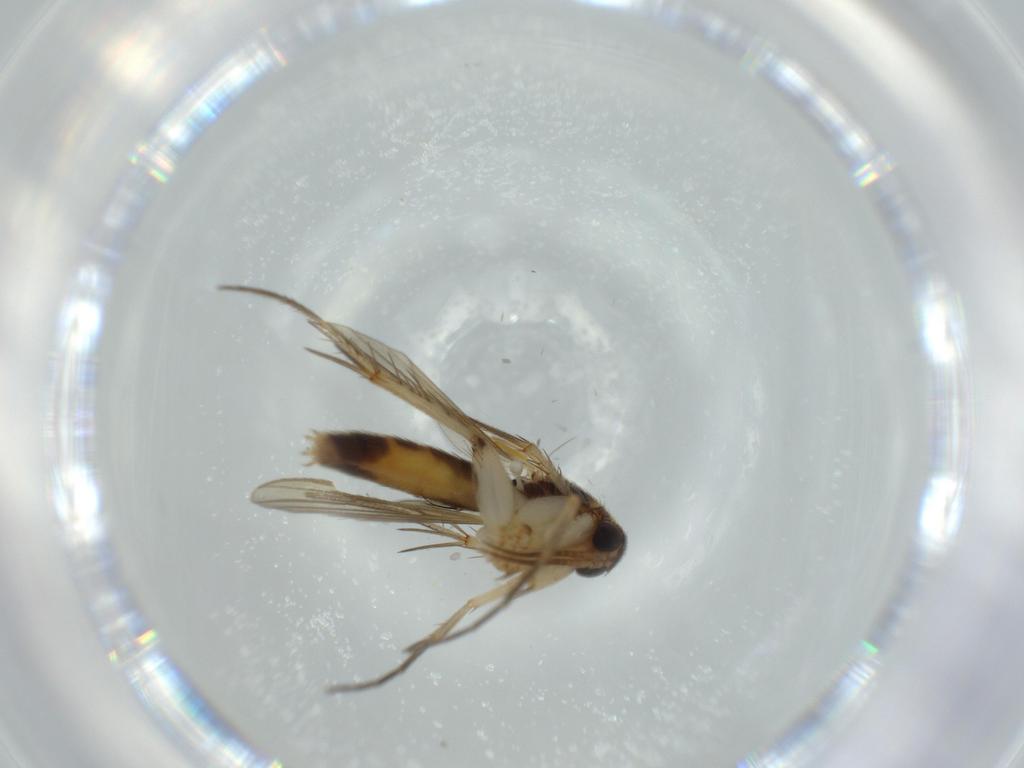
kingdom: Animalia
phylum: Arthropoda
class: Insecta
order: Diptera
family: Mycetophilidae
